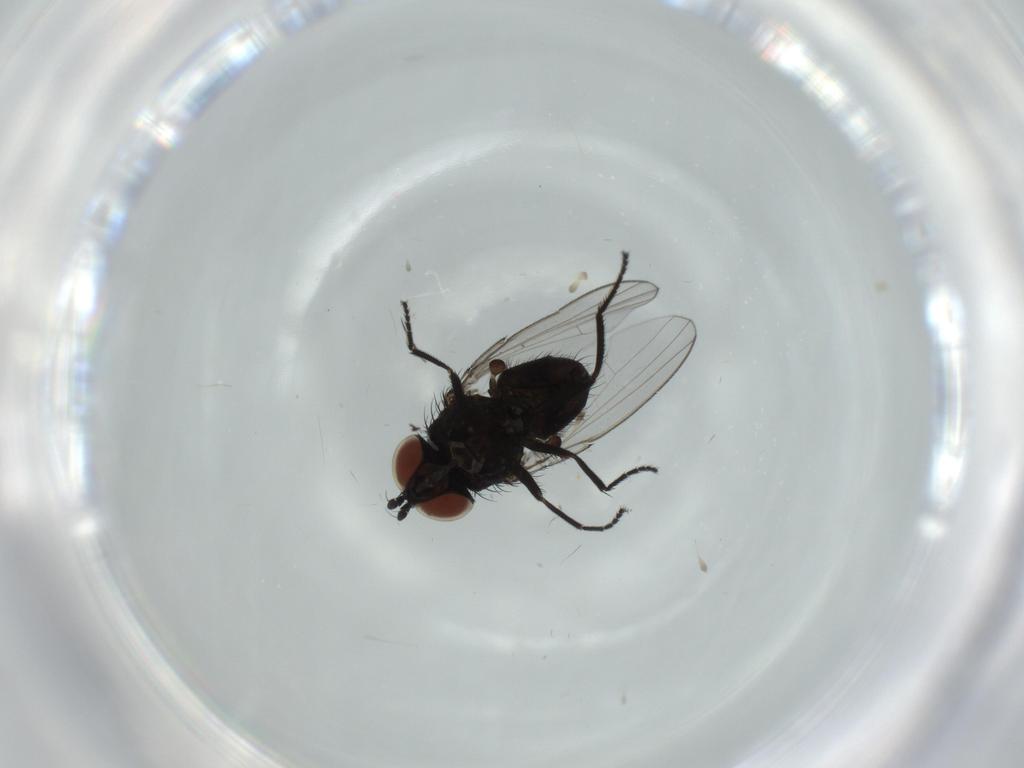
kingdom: Animalia
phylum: Arthropoda
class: Insecta
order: Diptera
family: Milichiidae
